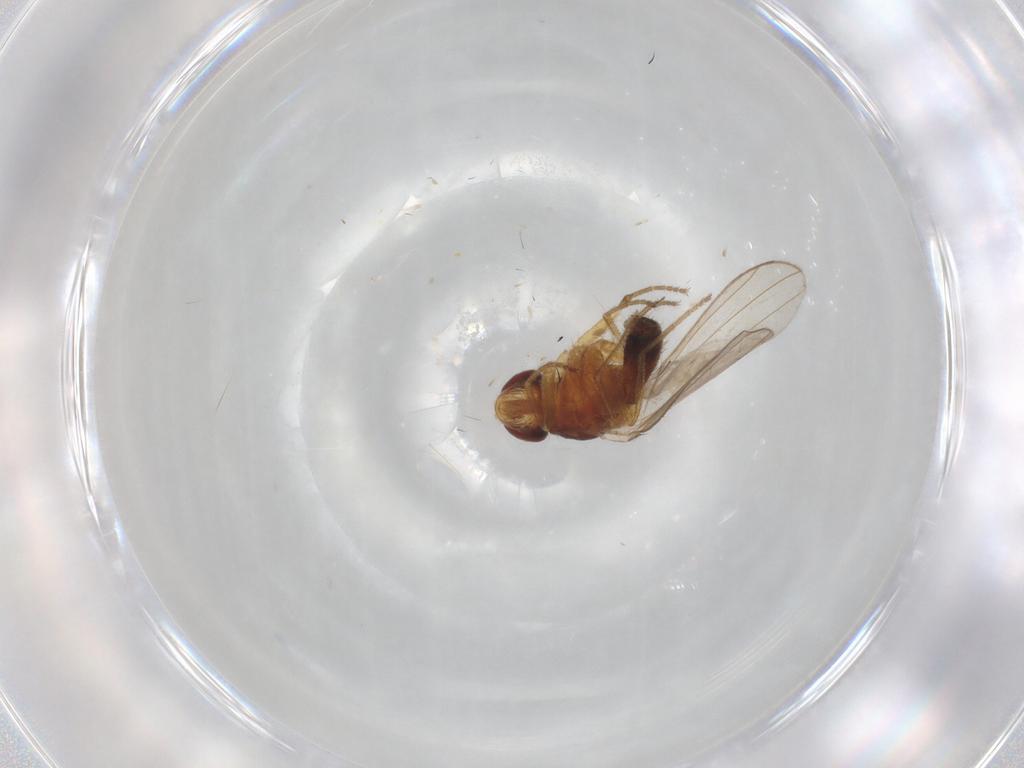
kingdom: Animalia
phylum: Arthropoda
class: Insecta
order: Diptera
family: Drosophilidae
